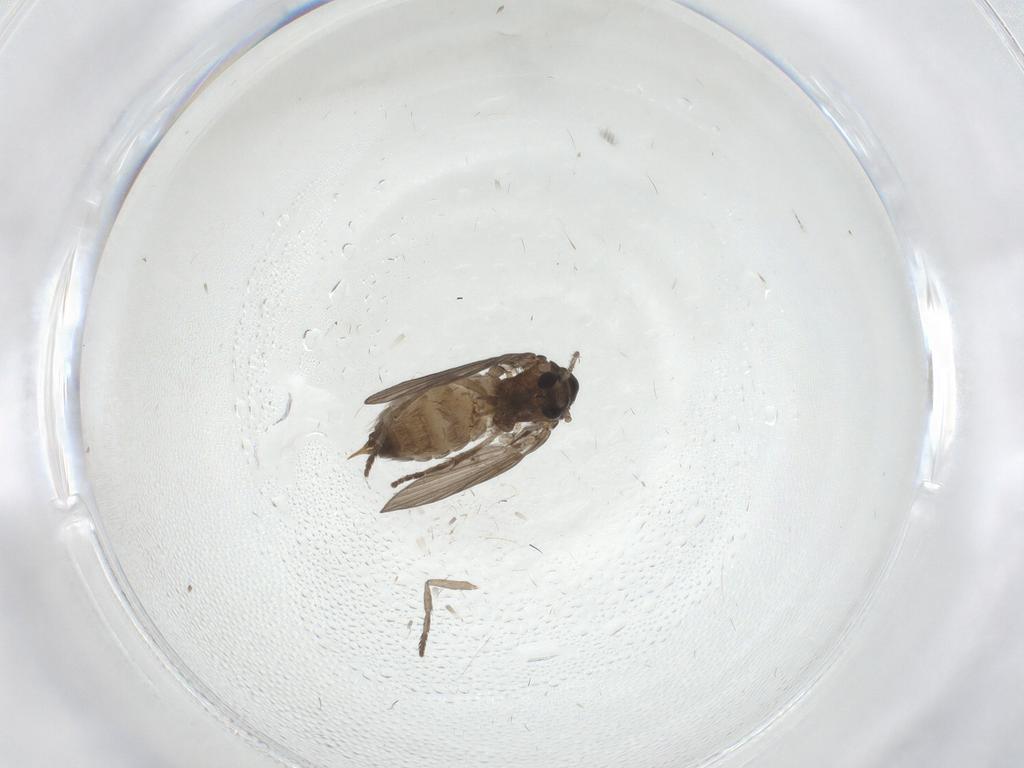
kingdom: Animalia
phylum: Arthropoda
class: Insecta
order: Diptera
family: Psychodidae
